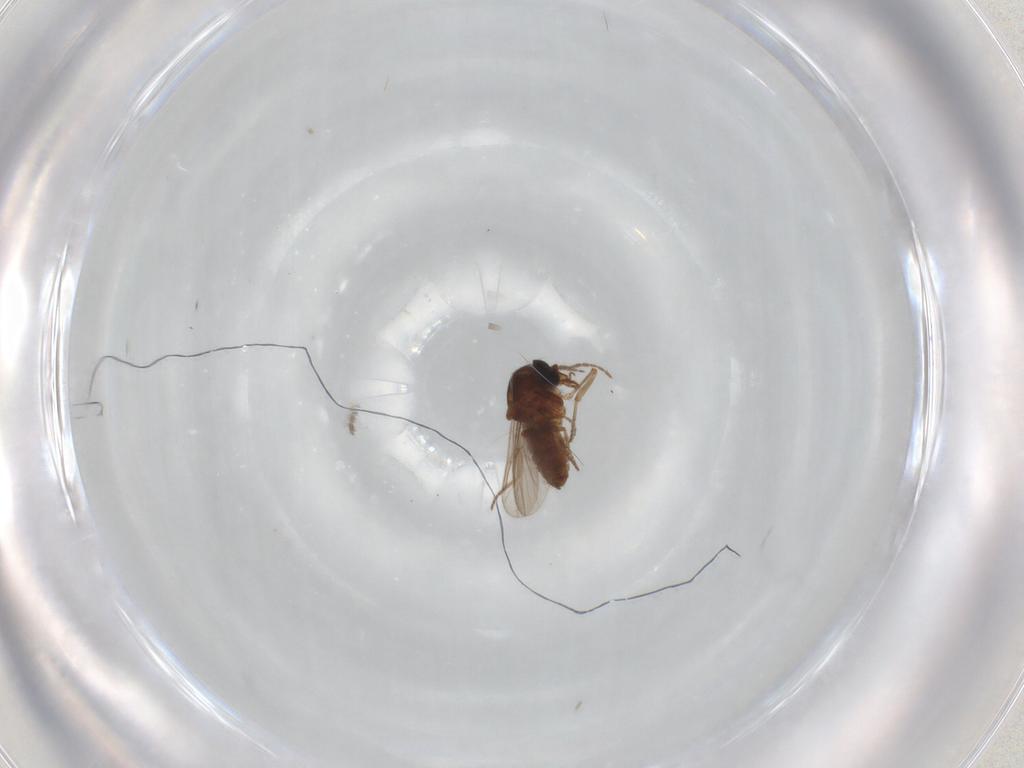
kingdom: Animalia
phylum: Arthropoda
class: Insecta
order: Diptera
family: Ceratopogonidae
